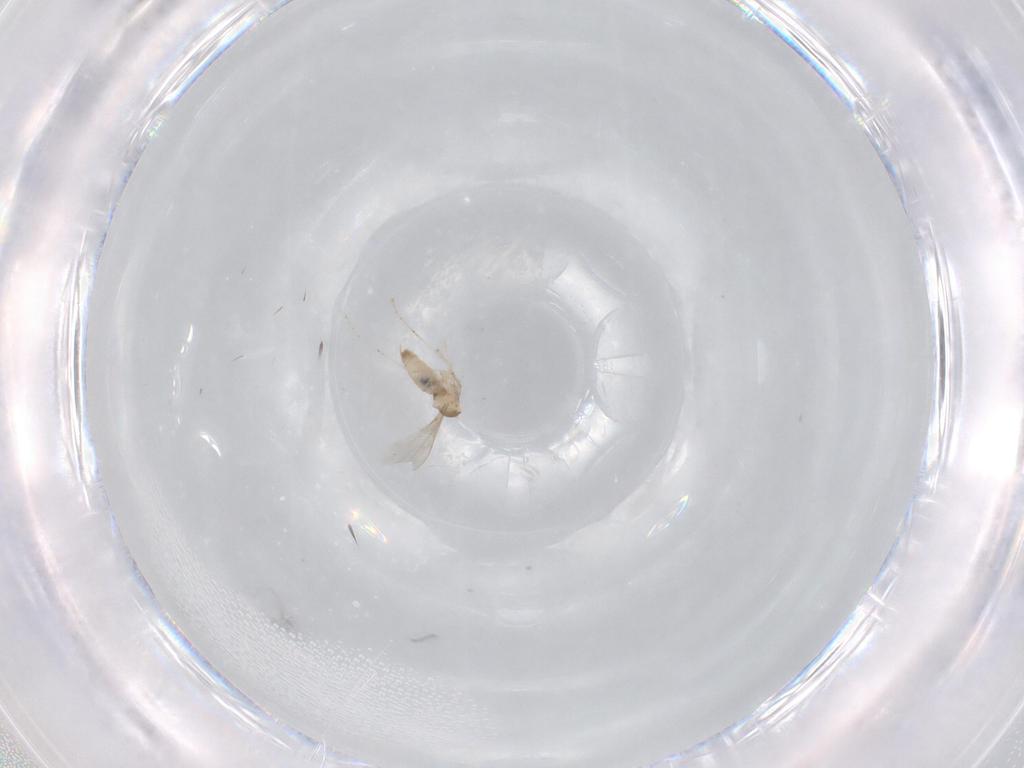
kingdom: Animalia
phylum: Arthropoda
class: Insecta
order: Diptera
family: Cecidomyiidae
